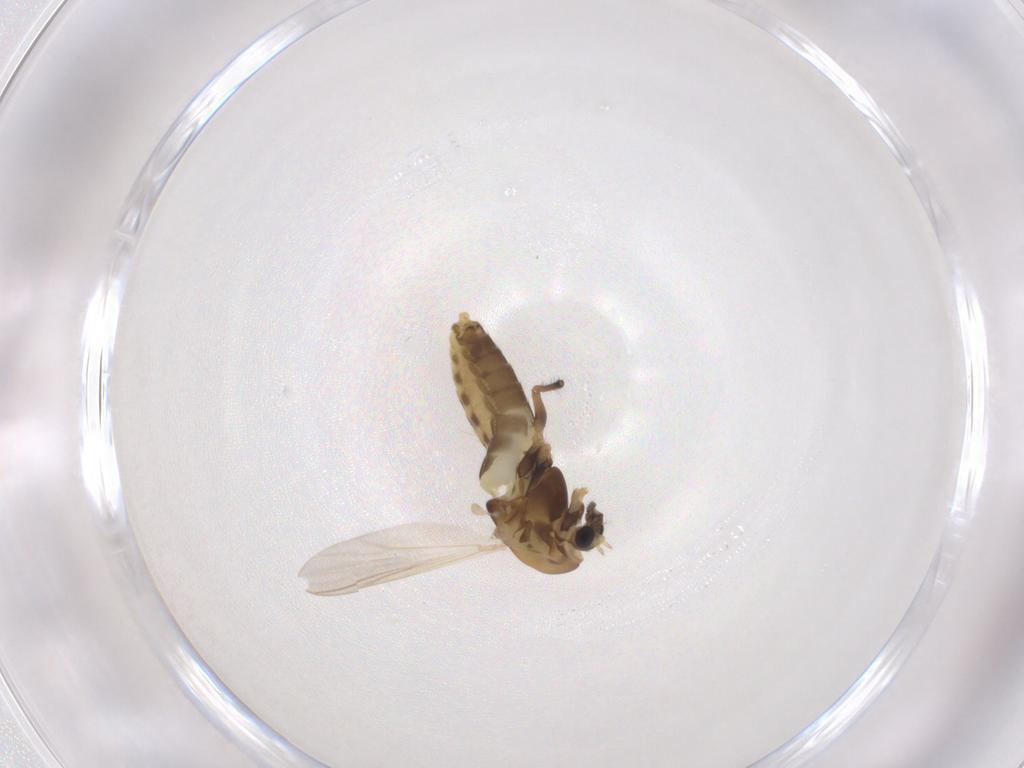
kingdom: Animalia
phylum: Arthropoda
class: Insecta
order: Diptera
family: Chironomidae
